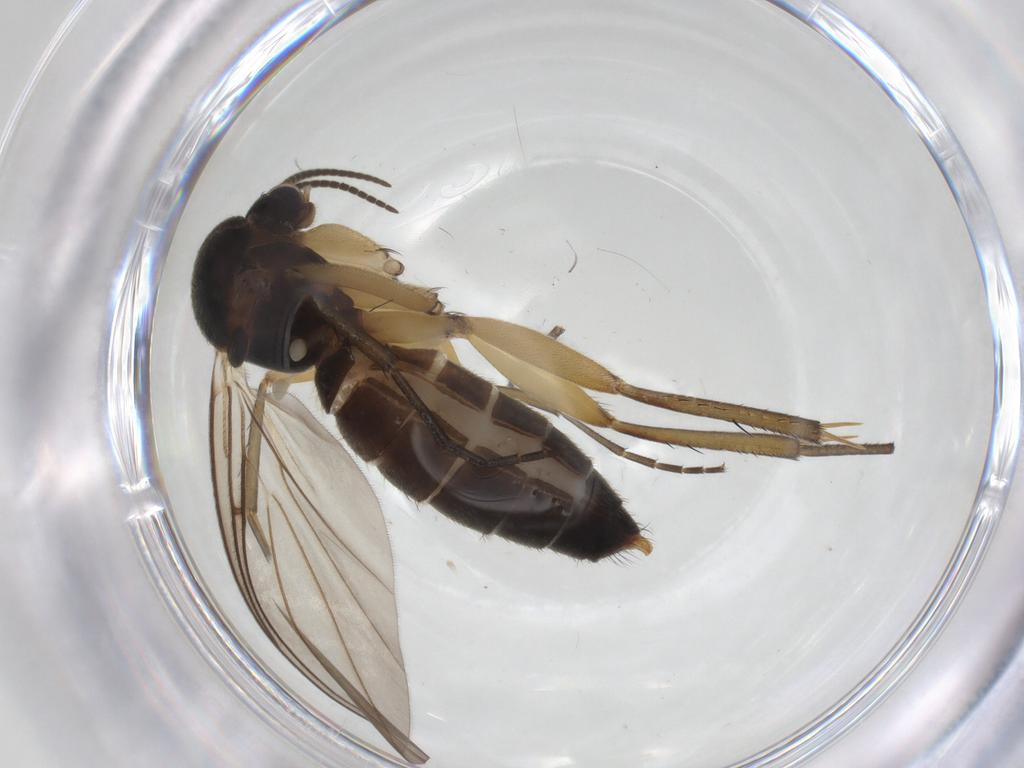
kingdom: Animalia
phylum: Arthropoda
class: Insecta
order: Diptera
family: Mycetophilidae
